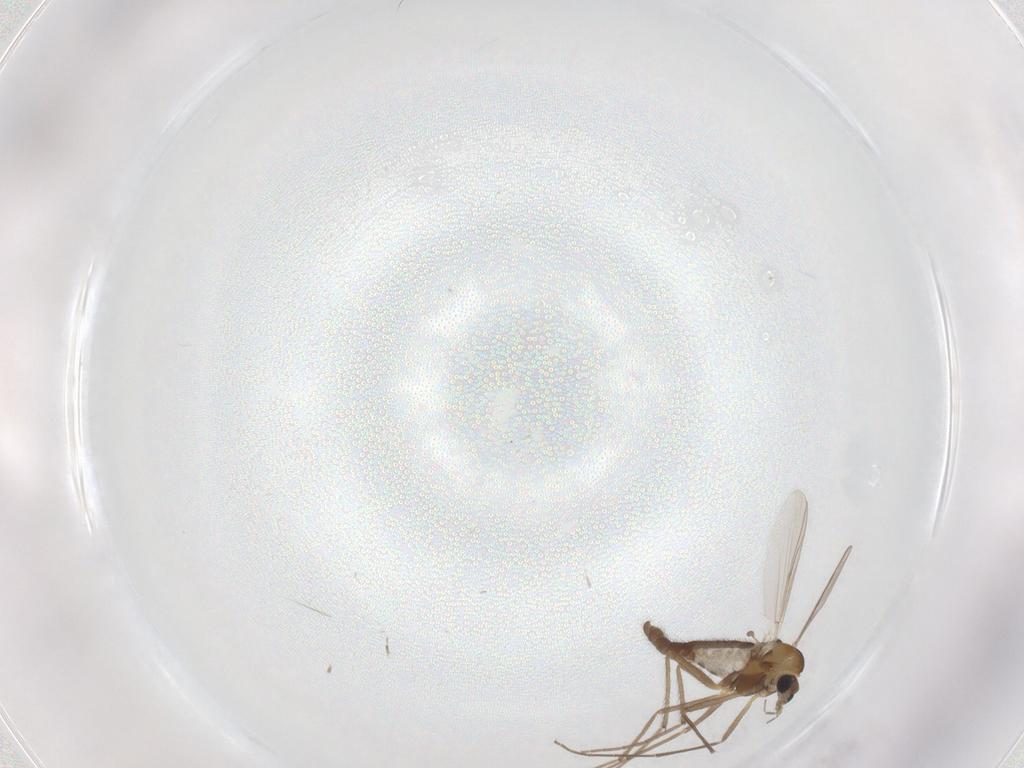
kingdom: Animalia
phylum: Arthropoda
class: Insecta
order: Diptera
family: Chironomidae
